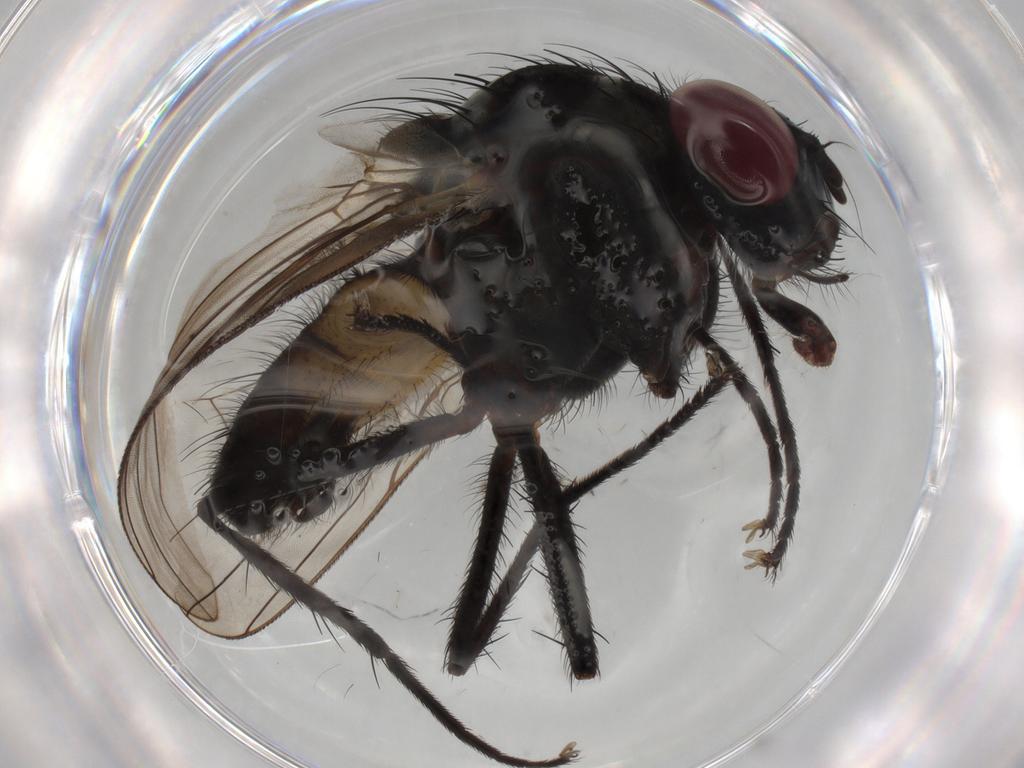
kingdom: Animalia
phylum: Arthropoda
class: Insecta
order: Diptera
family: Anthomyiidae
